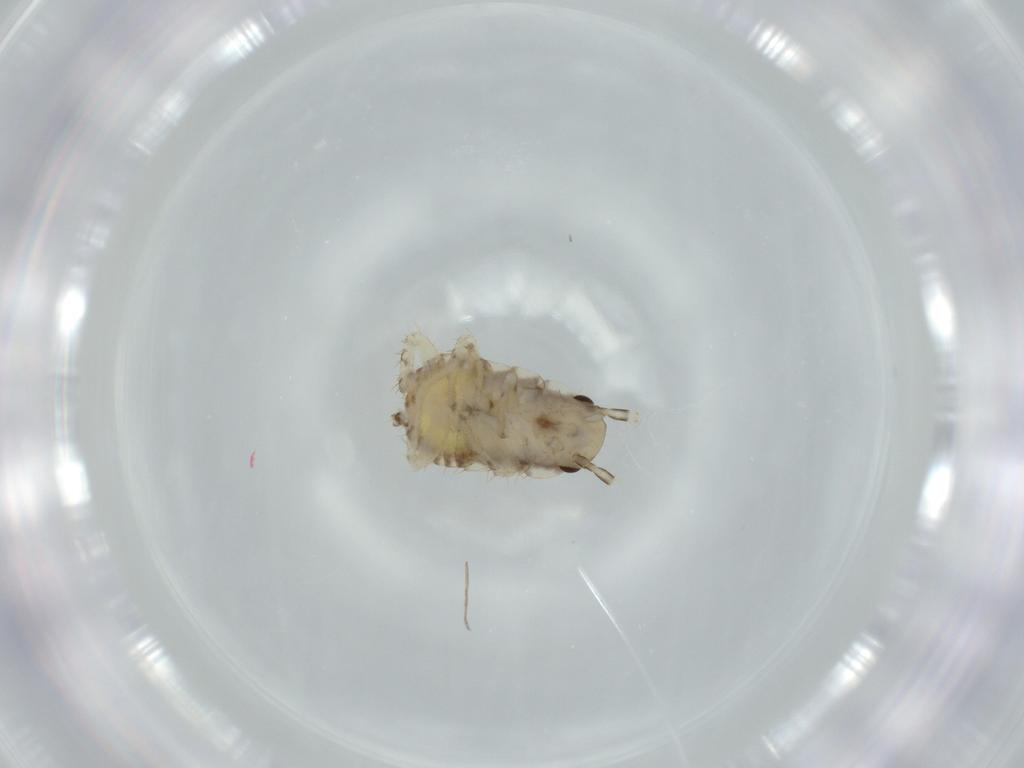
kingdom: Animalia
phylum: Arthropoda
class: Insecta
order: Blattodea
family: Ectobiidae
